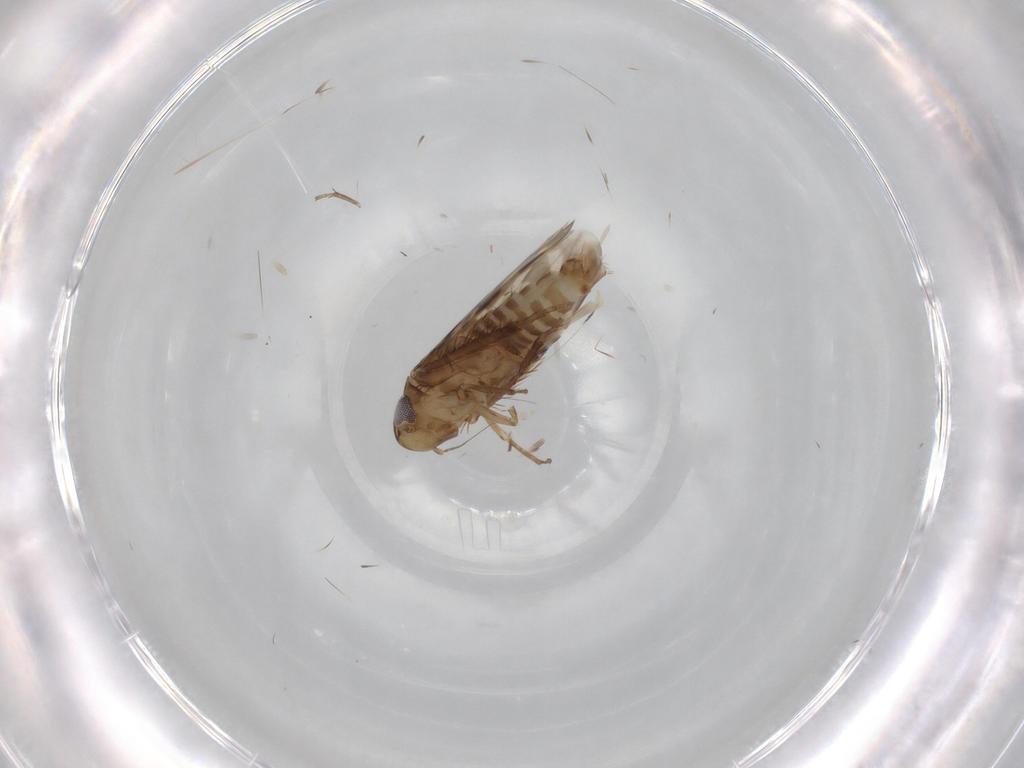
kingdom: Animalia
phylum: Arthropoda
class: Insecta
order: Hemiptera
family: Cicadellidae
